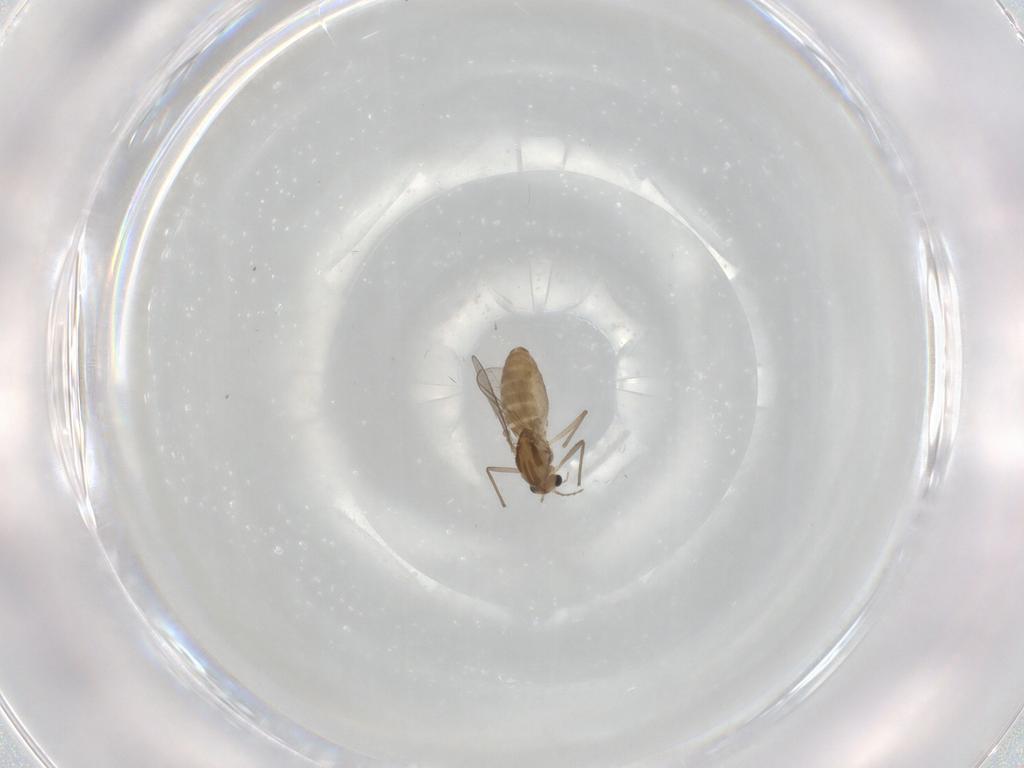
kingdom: Animalia
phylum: Arthropoda
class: Insecta
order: Diptera
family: Chironomidae
